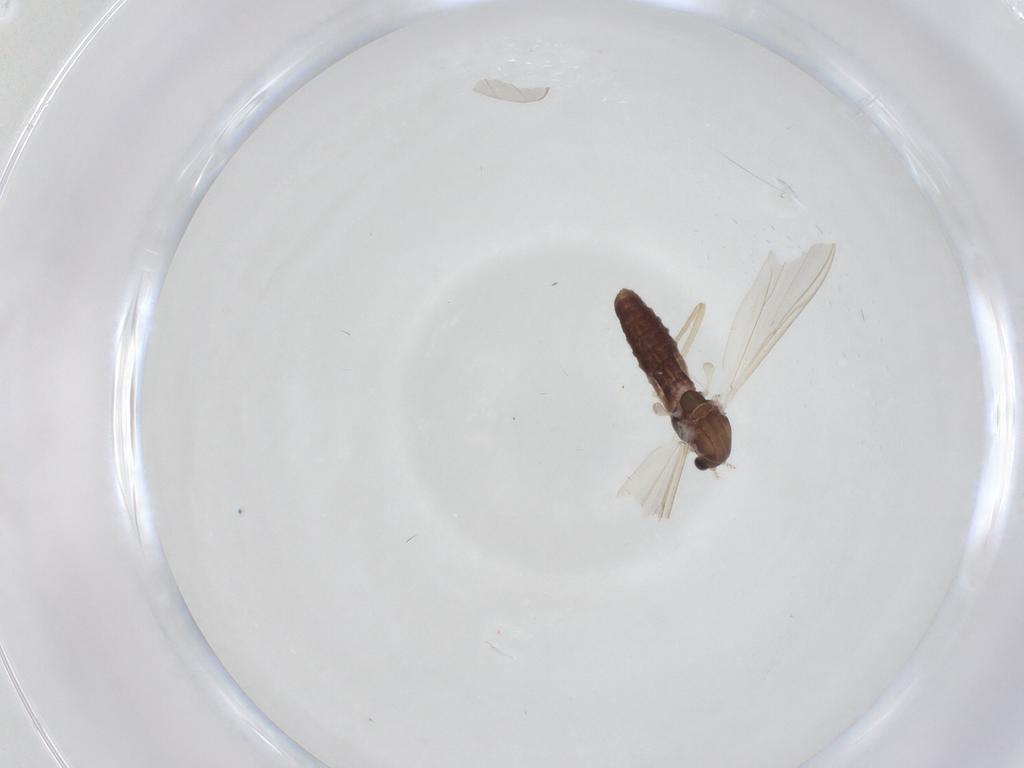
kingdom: Animalia
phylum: Arthropoda
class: Insecta
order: Diptera
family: Chironomidae
